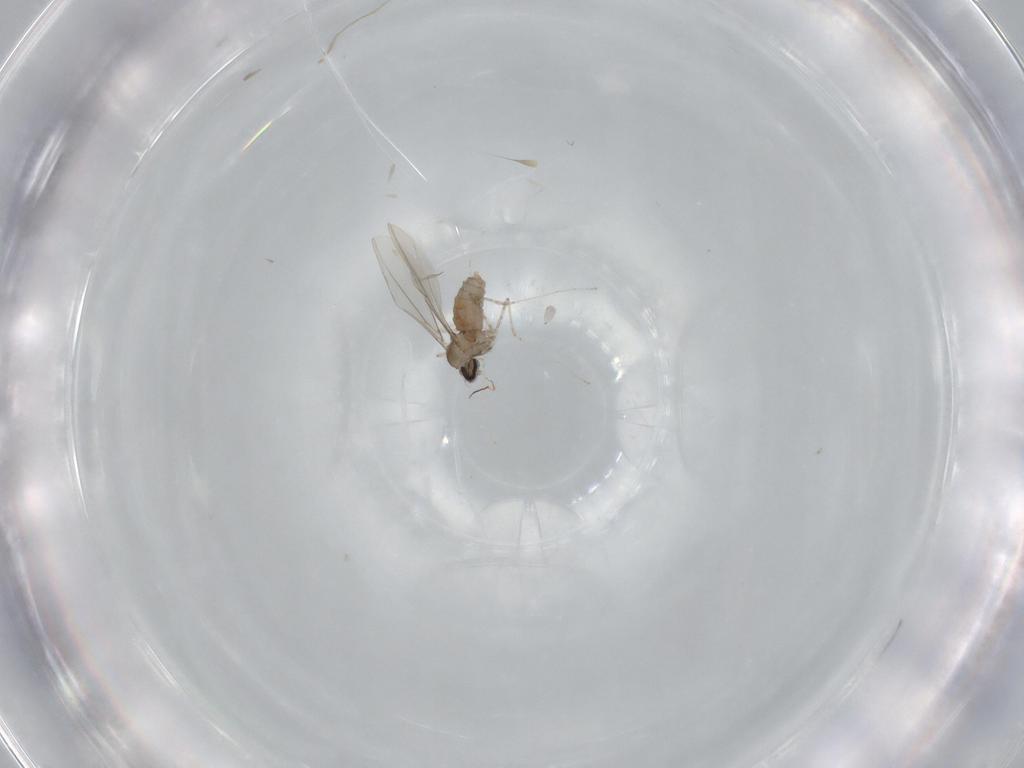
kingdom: Animalia
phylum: Arthropoda
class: Insecta
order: Diptera
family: Cecidomyiidae
